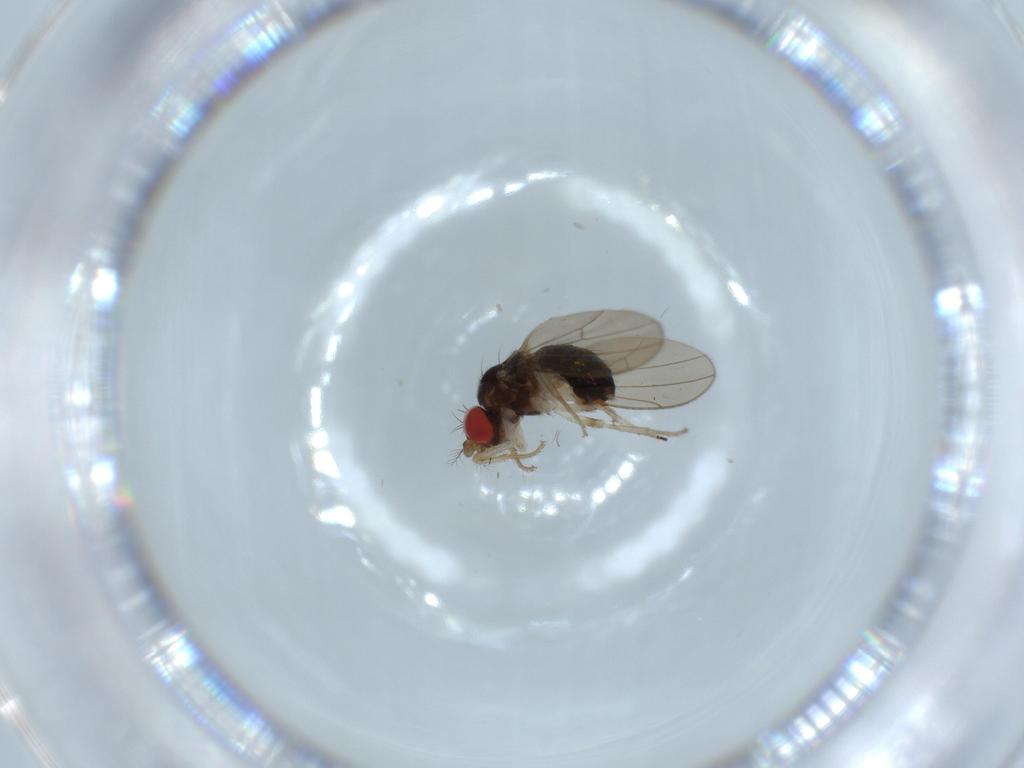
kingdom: Animalia
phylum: Arthropoda
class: Insecta
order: Diptera
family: Drosophilidae
